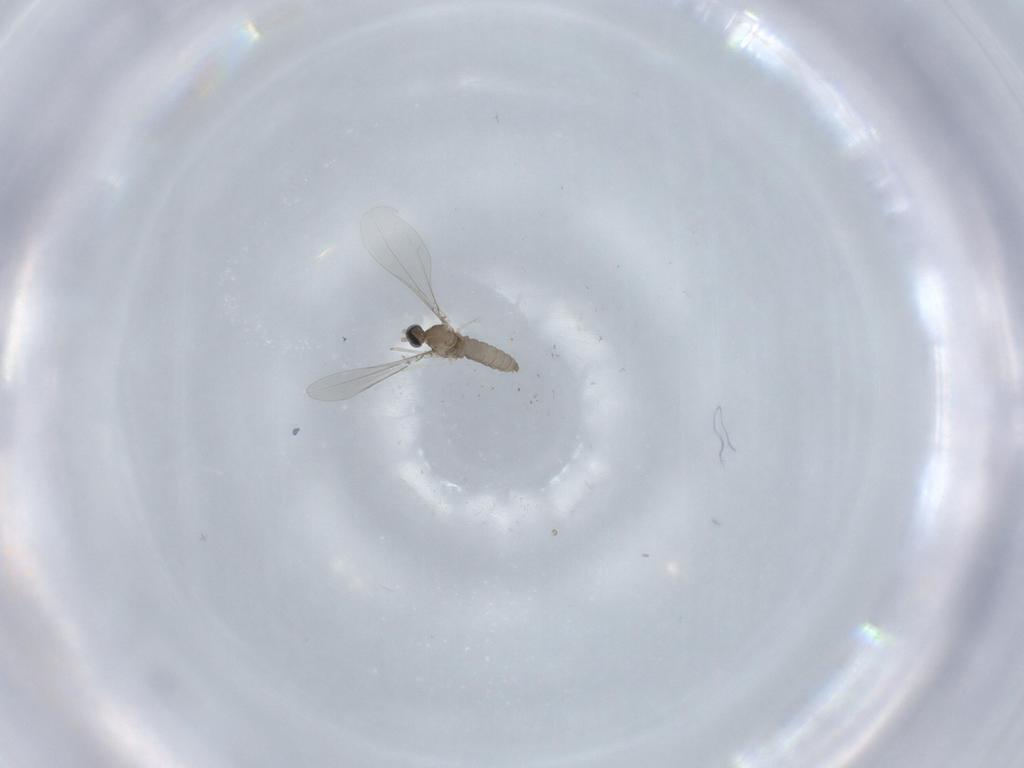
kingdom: Animalia
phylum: Arthropoda
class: Insecta
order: Diptera
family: Cecidomyiidae
